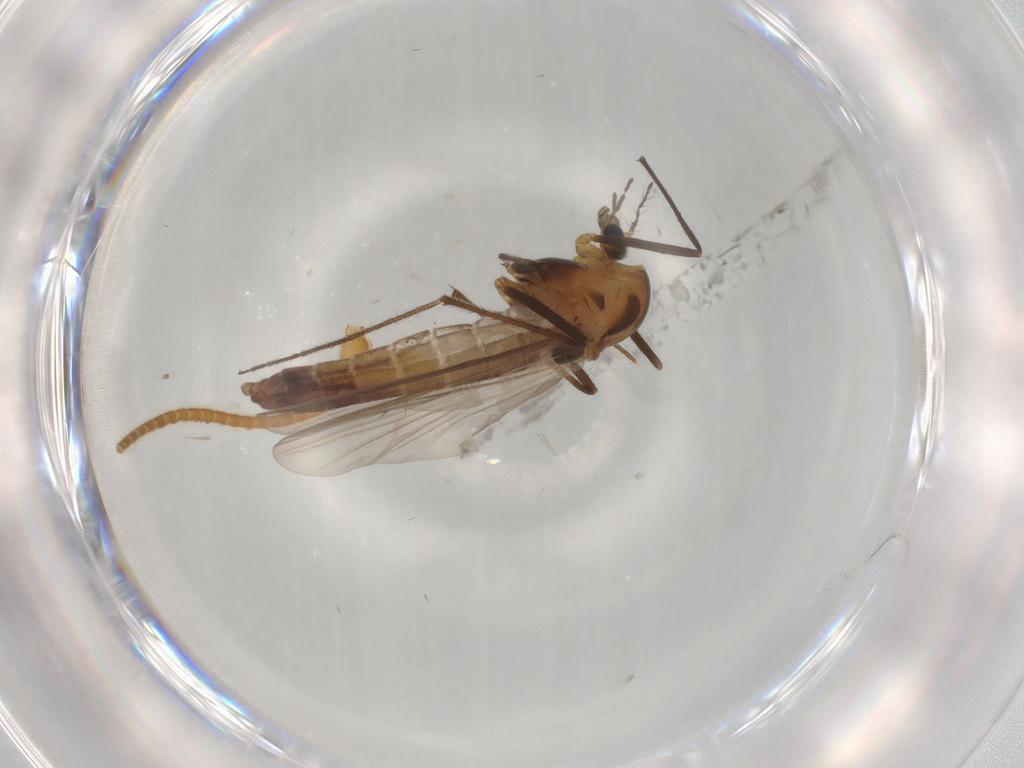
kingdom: Animalia
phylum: Arthropoda
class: Insecta
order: Diptera
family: Chironomidae
